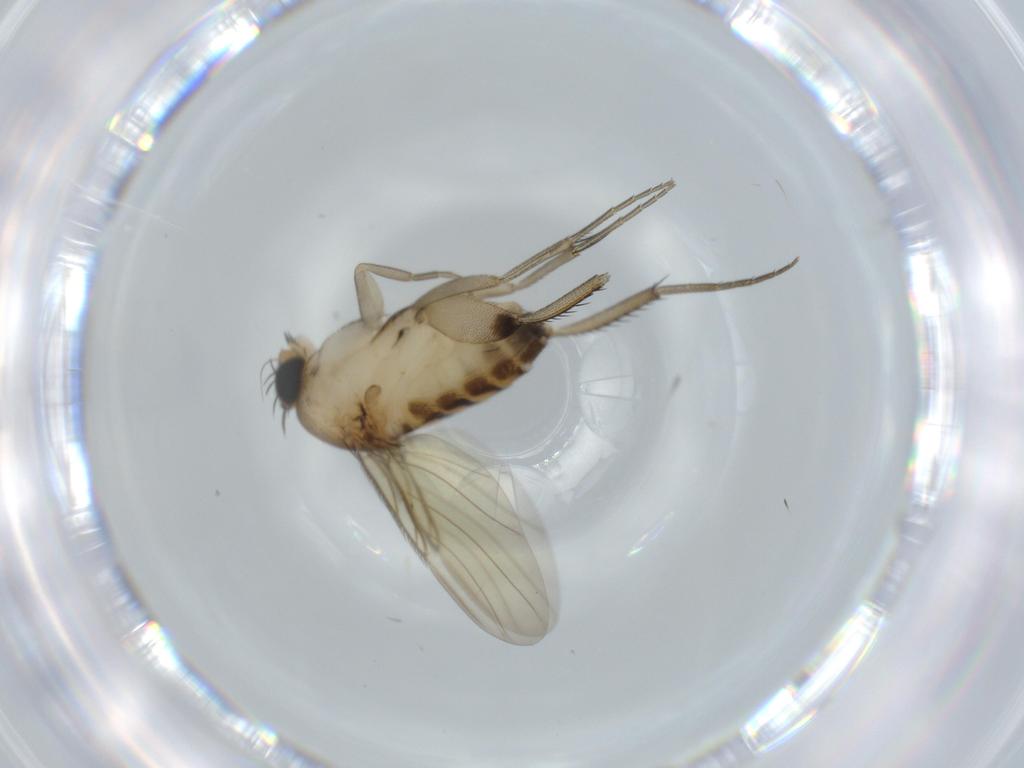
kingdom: Animalia
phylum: Arthropoda
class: Insecta
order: Diptera
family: Phoridae
